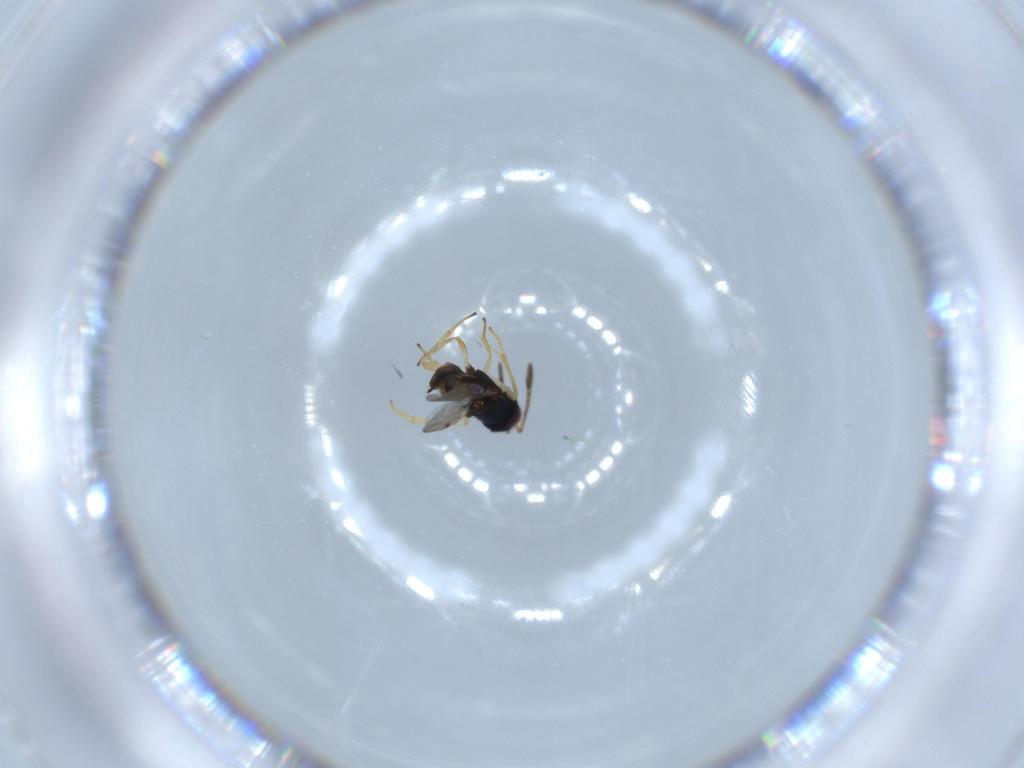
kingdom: Animalia
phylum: Arthropoda
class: Insecta
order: Hymenoptera
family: Encyrtidae
